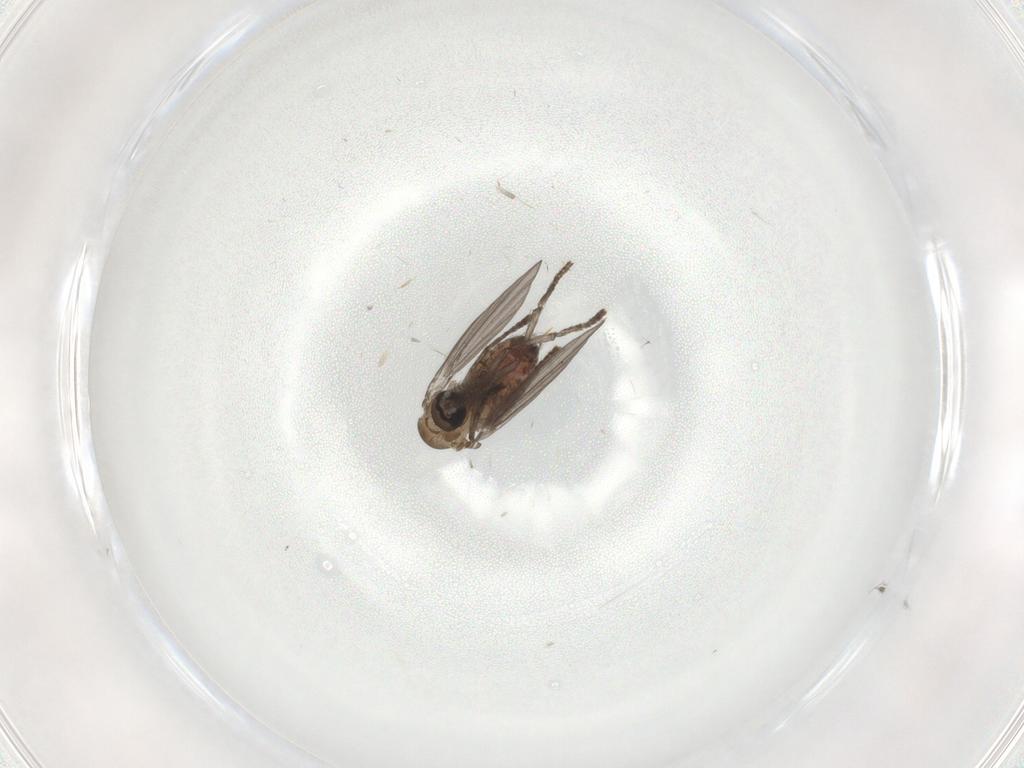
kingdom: Animalia
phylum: Arthropoda
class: Insecta
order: Diptera
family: Psychodidae
